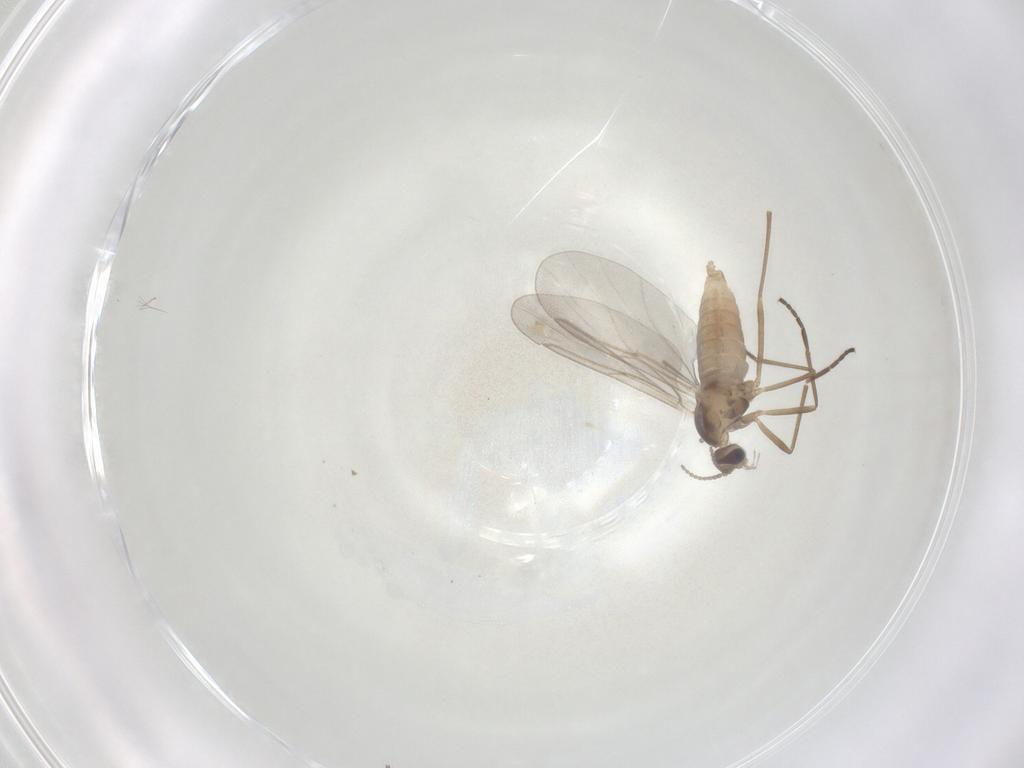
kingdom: Animalia
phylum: Arthropoda
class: Insecta
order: Diptera
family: Cecidomyiidae
